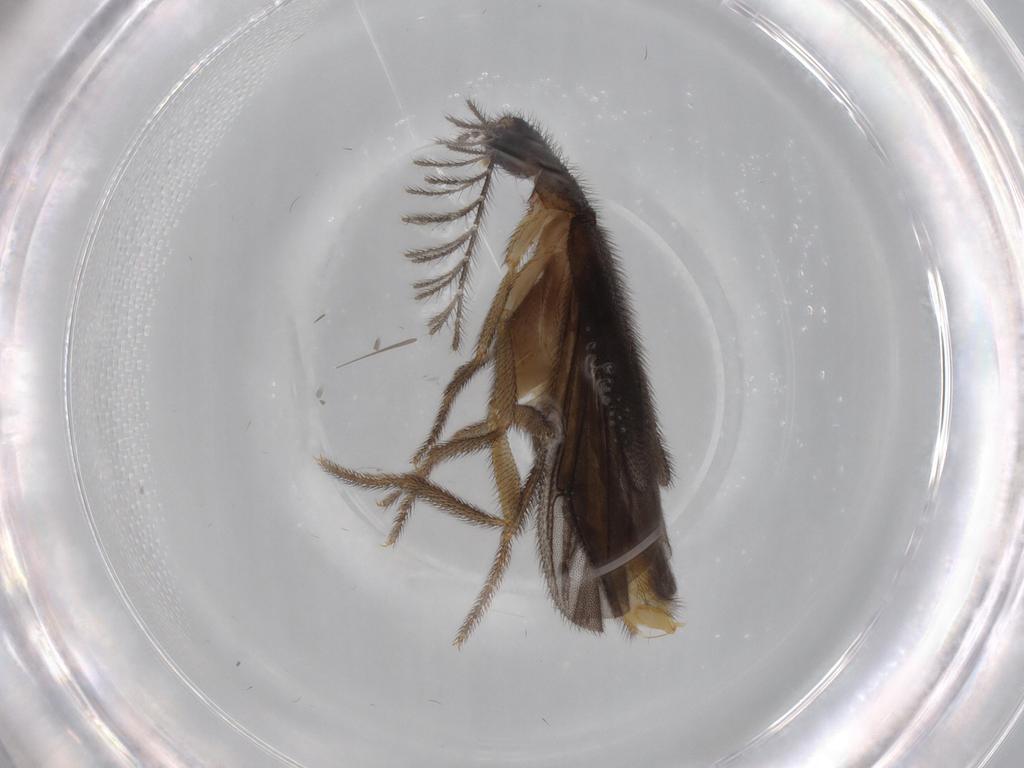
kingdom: Animalia
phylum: Arthropoda
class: Insecta
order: Coleoptera
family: Phengodidae
